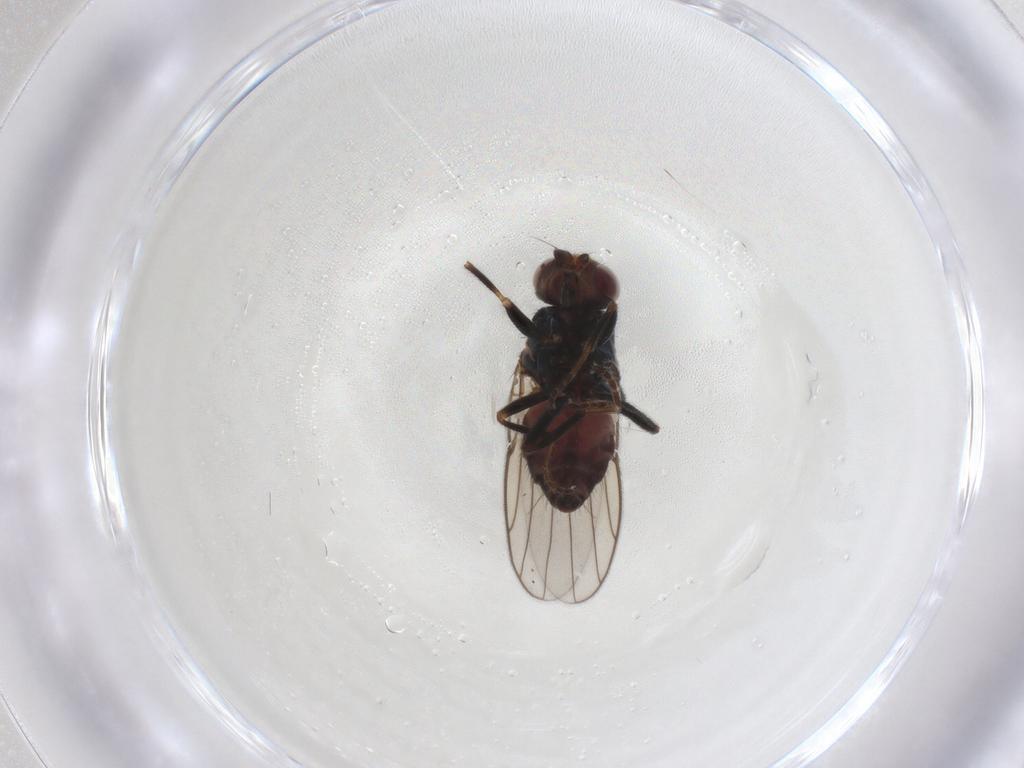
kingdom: Animalia
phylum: Arthropoda
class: Insecta
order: Diptera
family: Chloropidae
